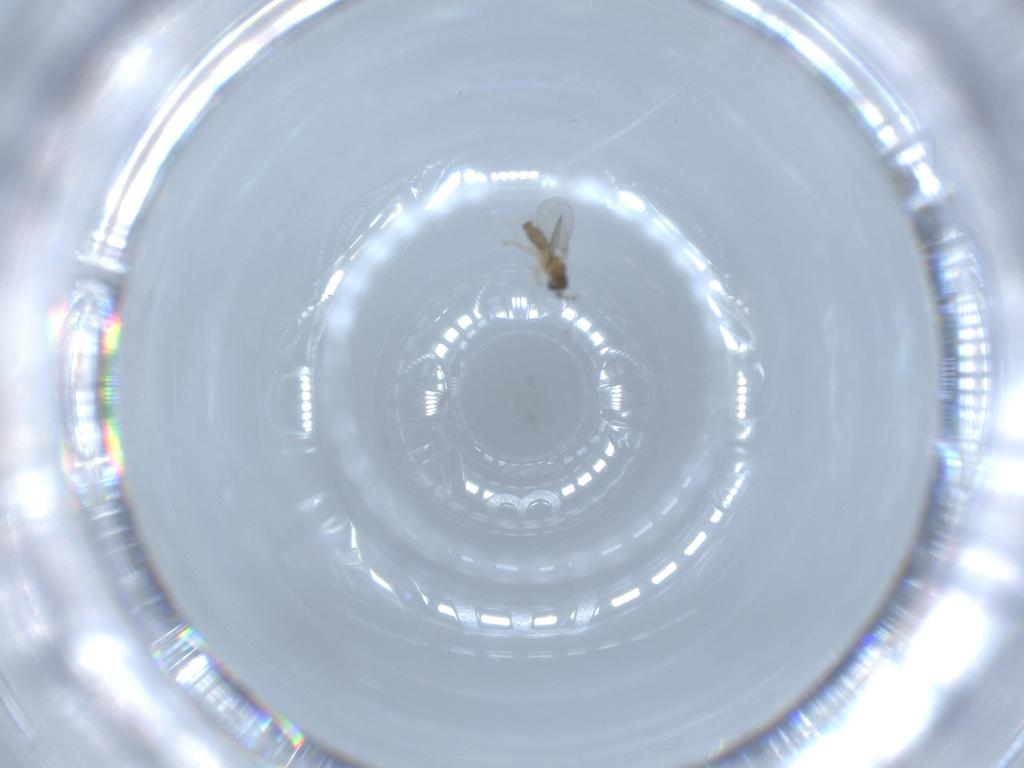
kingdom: Animalia
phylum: Arthropoda
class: Insecta
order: Diptera
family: Cecidomyiidae
